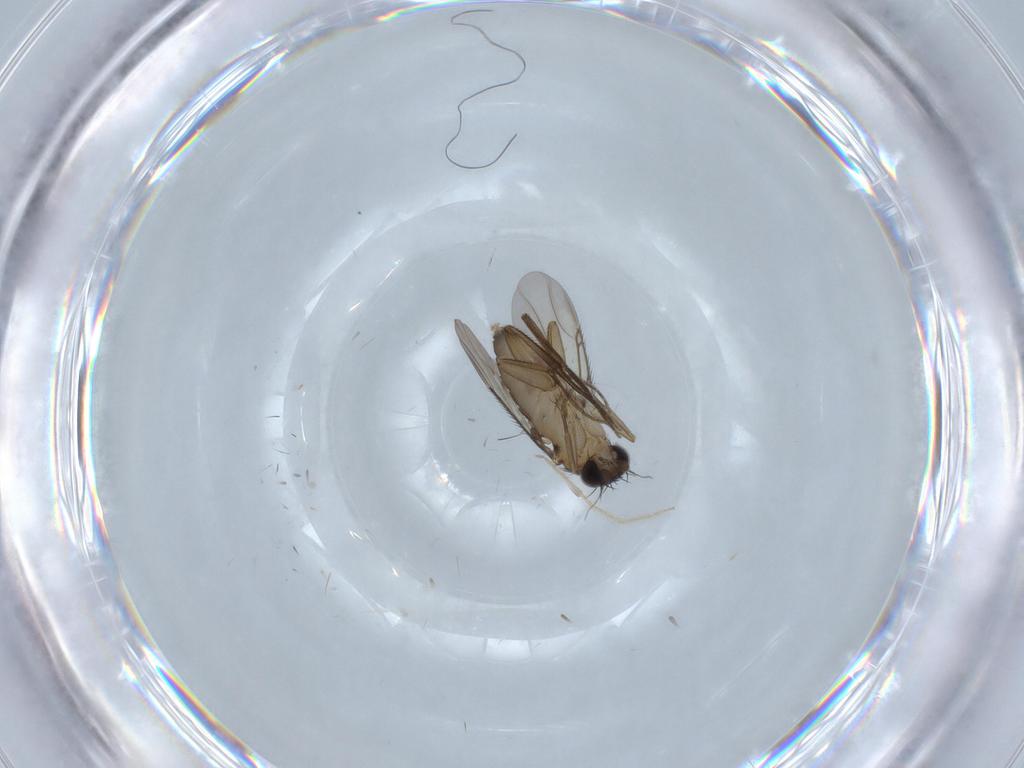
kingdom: Animalia
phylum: Arthropoda
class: Insecta
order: Diptera
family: Phoridae
